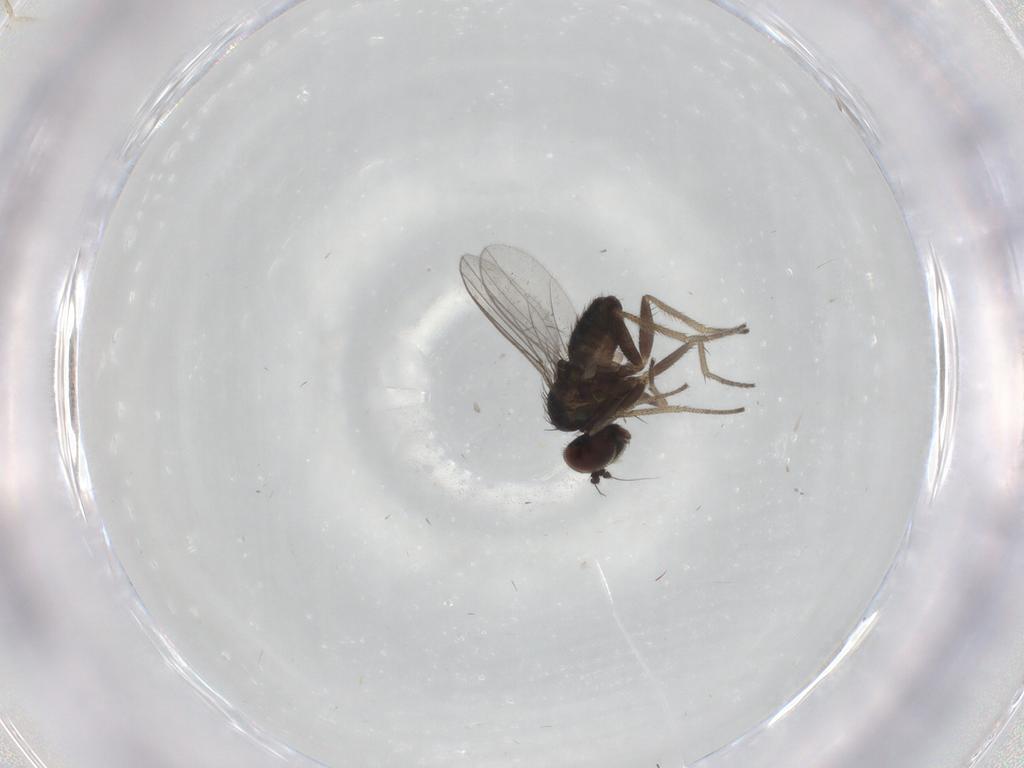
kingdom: Animalia
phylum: Arthropoda
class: Insecta
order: Diptera
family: Dolichopodidae
